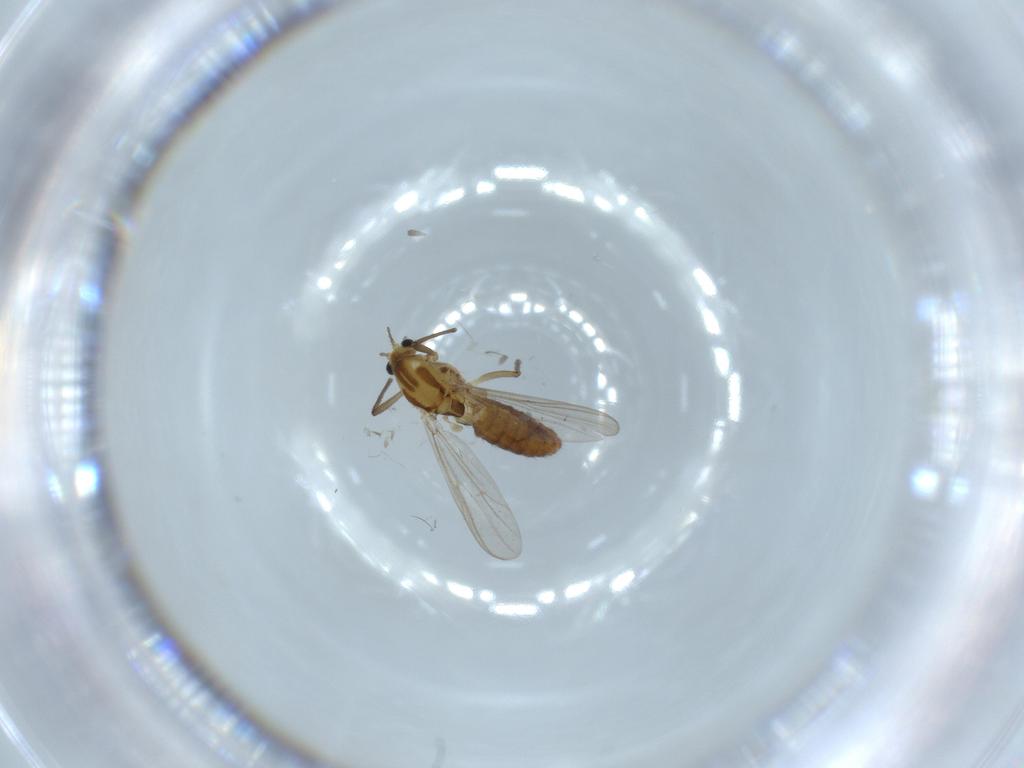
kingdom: Animalia
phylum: Arthropoda
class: Insecta
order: Diptera
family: Chironomidae
